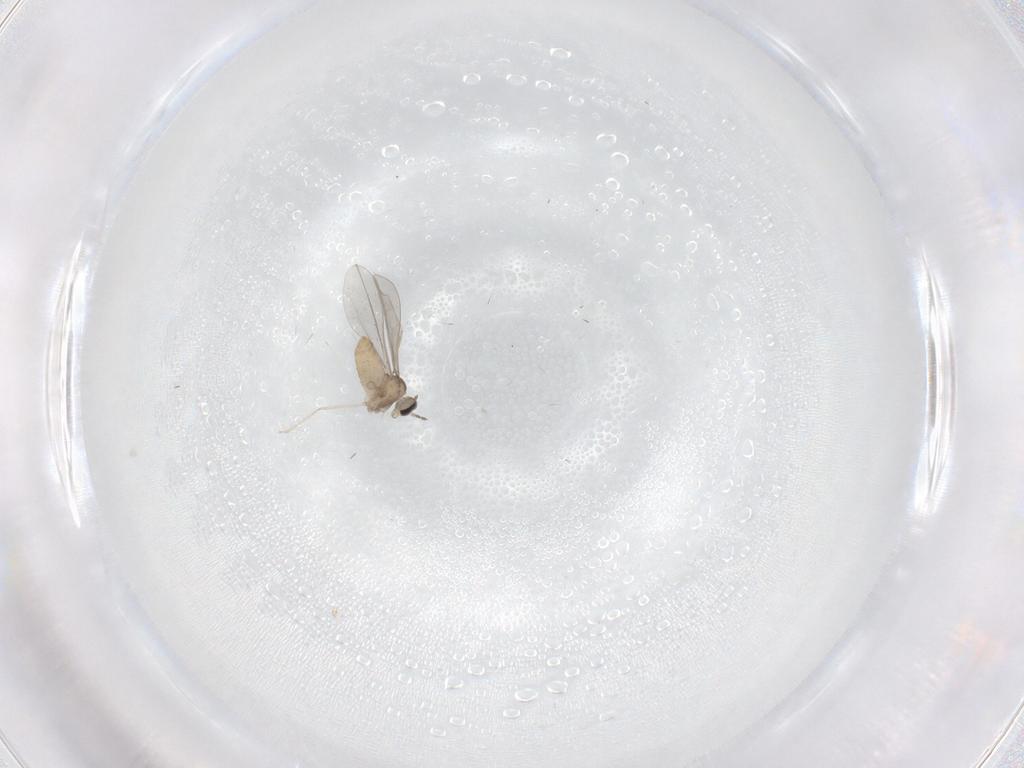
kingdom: Animalia
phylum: Arthropoda
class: Insecta
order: Diptera
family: Cecidomyiidae
